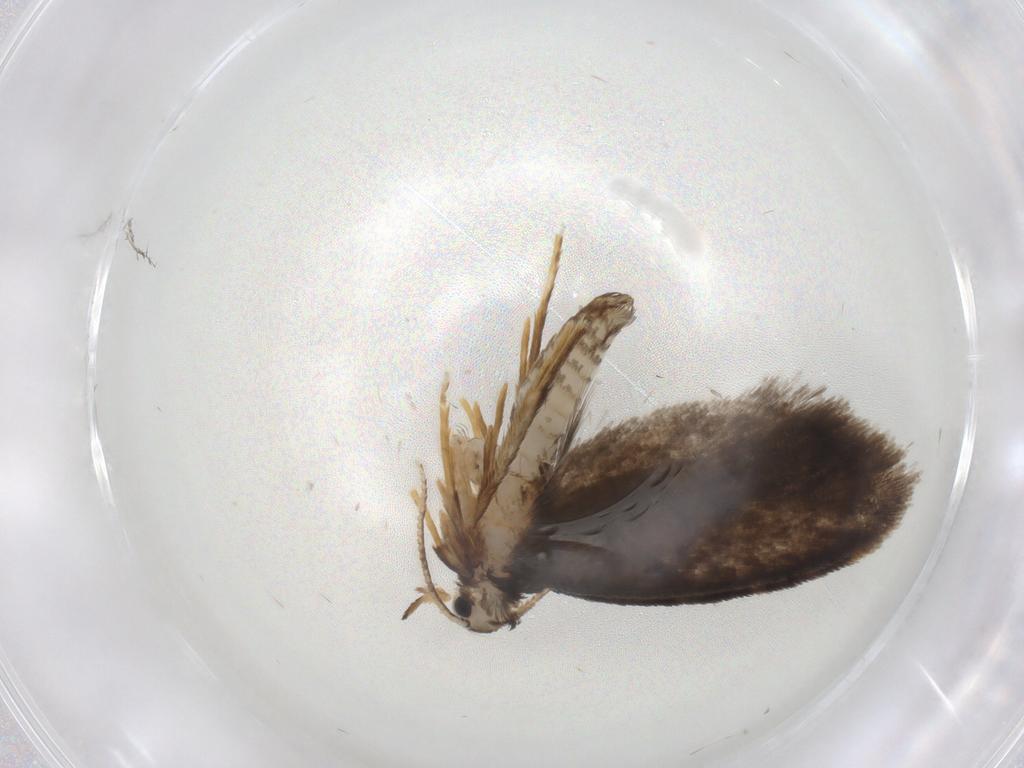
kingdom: Animalia
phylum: Arthropoda
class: Insecta
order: Lepidoptera
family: Psychidae
